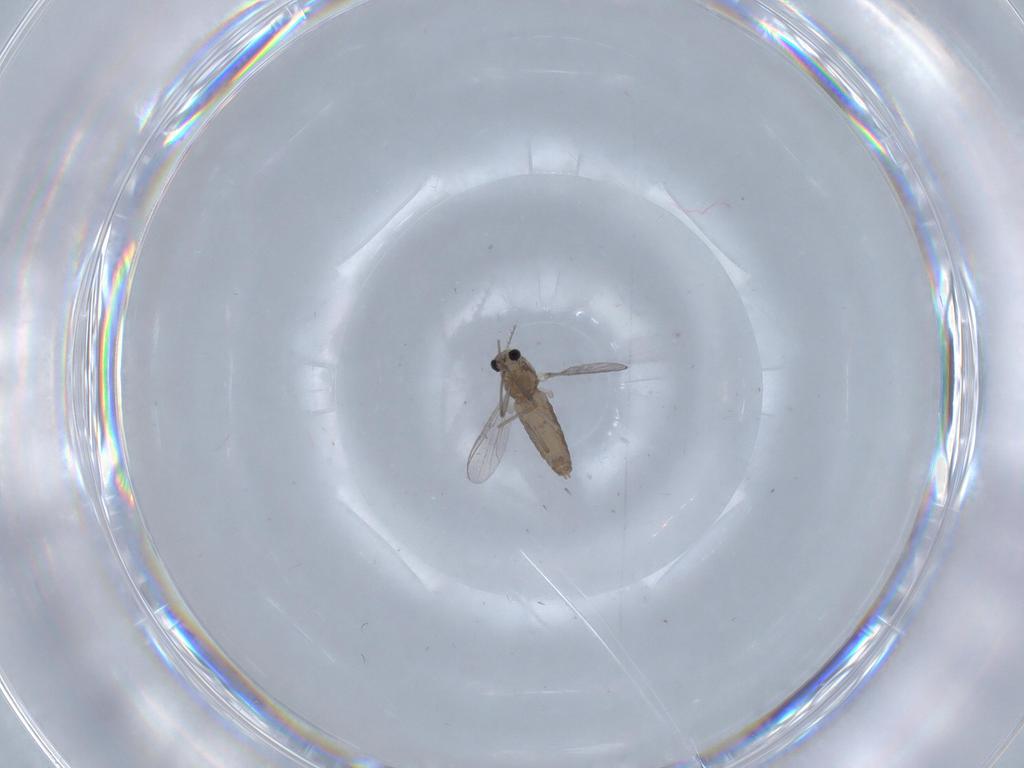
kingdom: Animalia
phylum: Arthropoda
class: Insecta
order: Diptera
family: Chironomidae
